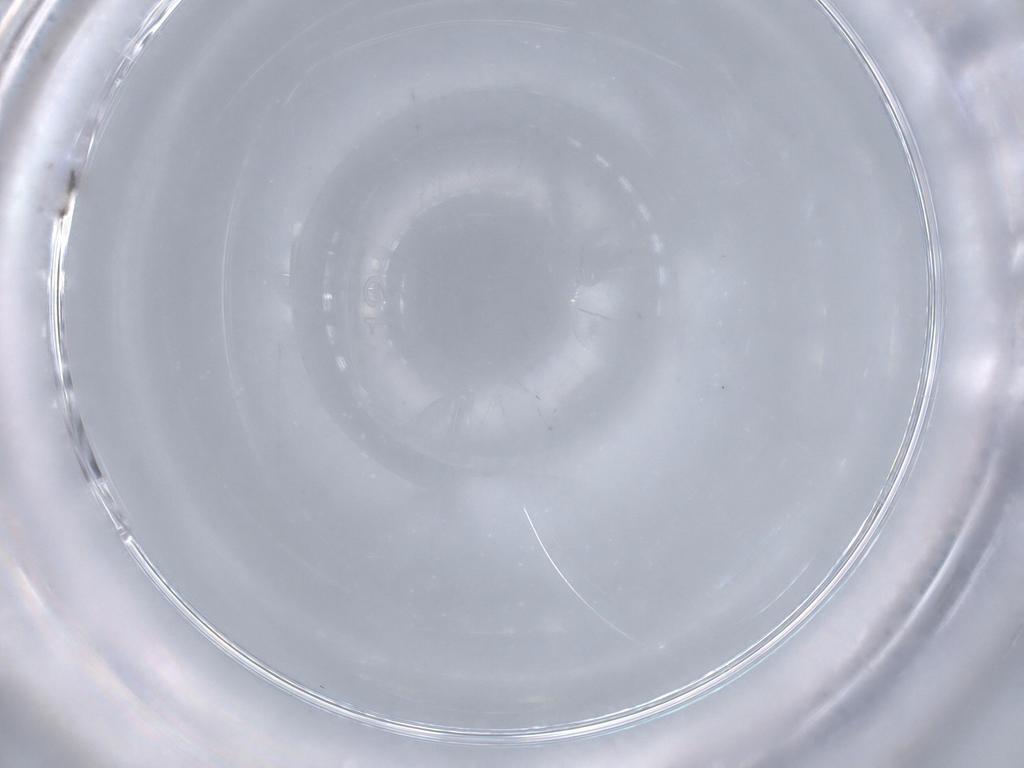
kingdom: Animalia
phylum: Arthropoda
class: Insecta
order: Hymenoptera
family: Mymaridae
